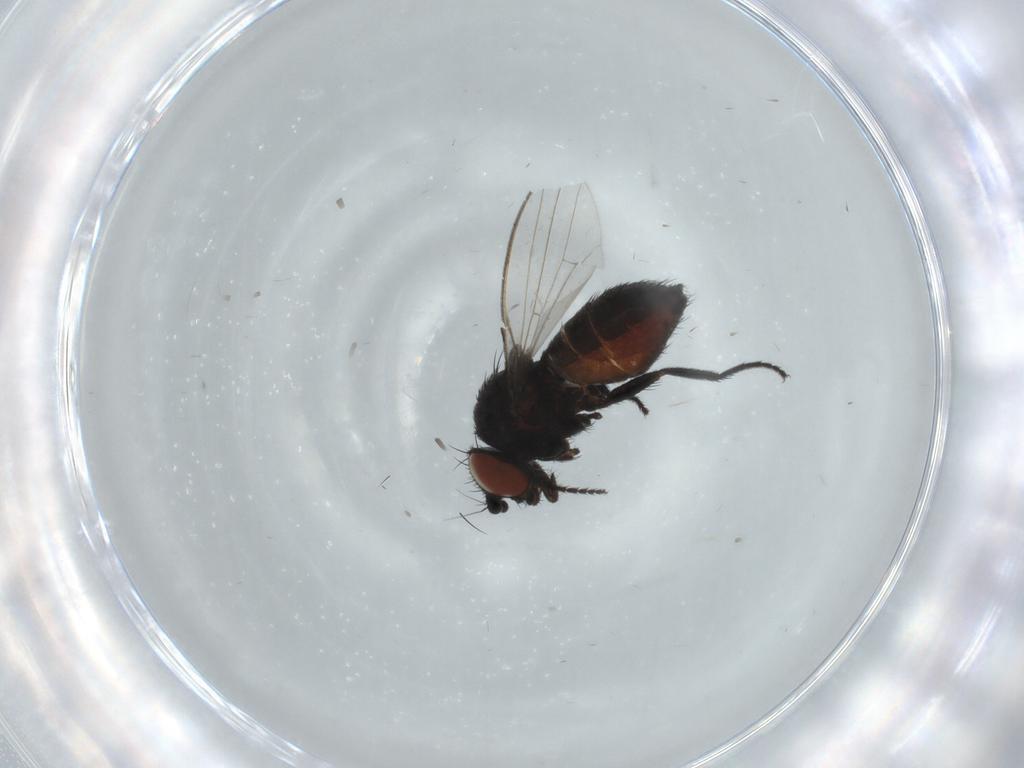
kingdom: Animalia
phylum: Arthropoda
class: Insecta
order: Diptera
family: Milichiidae
